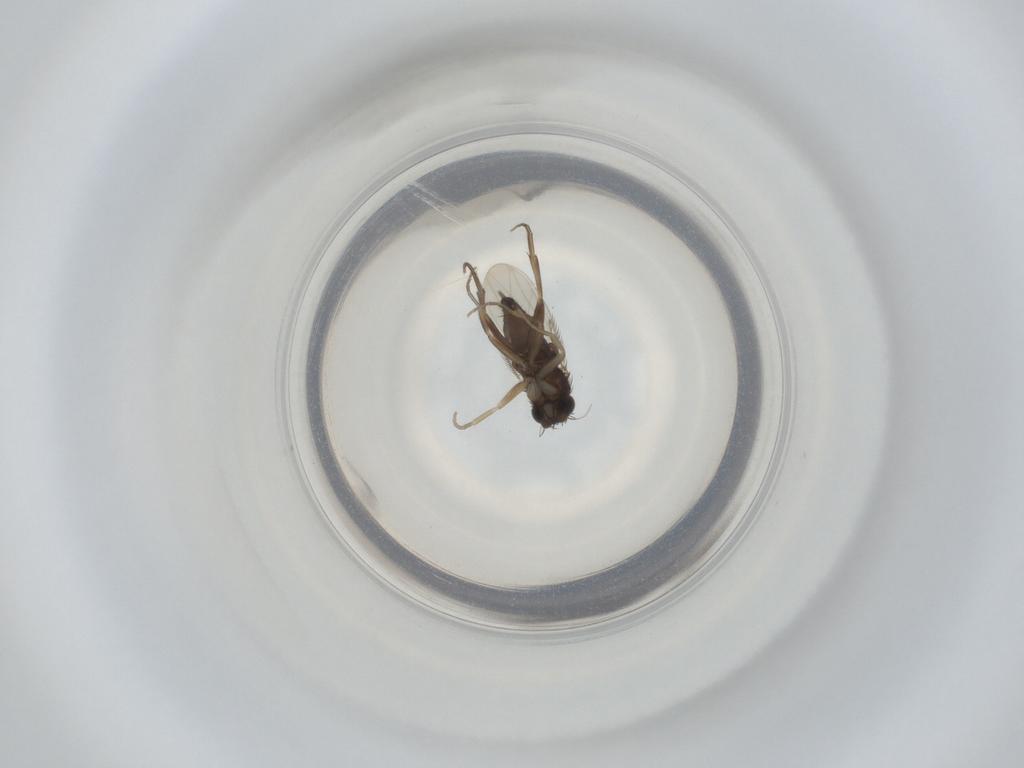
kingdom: Animalia
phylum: Arthropoda
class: Insecta
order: Diptera
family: Phoridae
